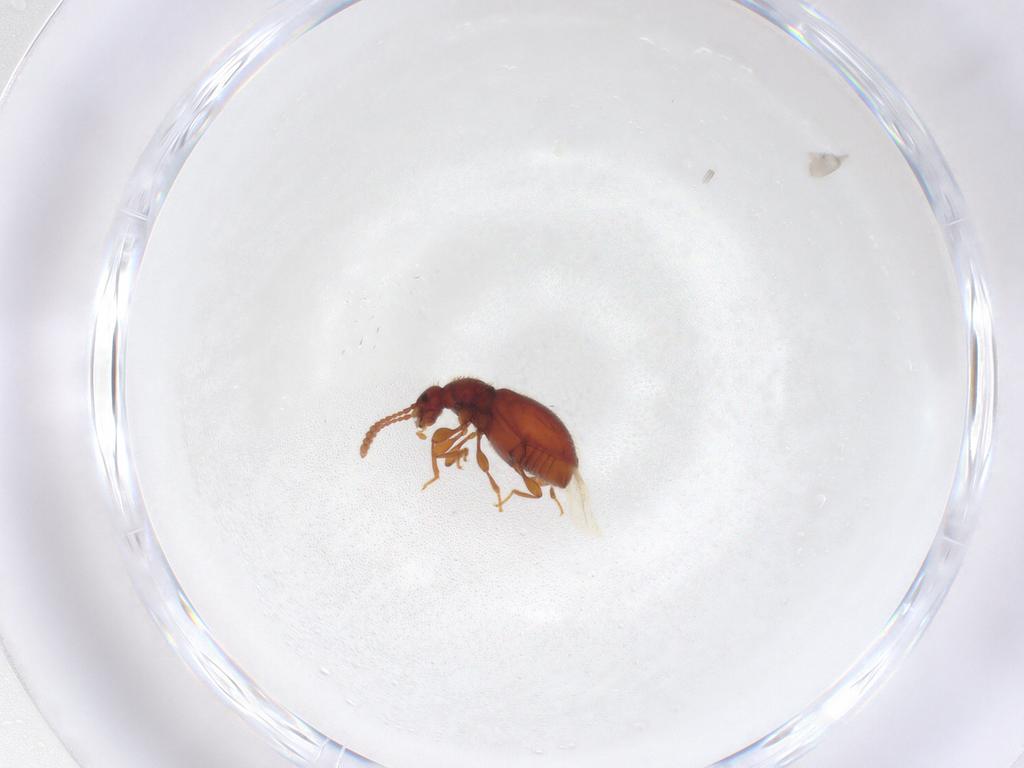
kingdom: Animalia
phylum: Arthropoda
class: Insecta
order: Coleoptera
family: Staphylinidae
